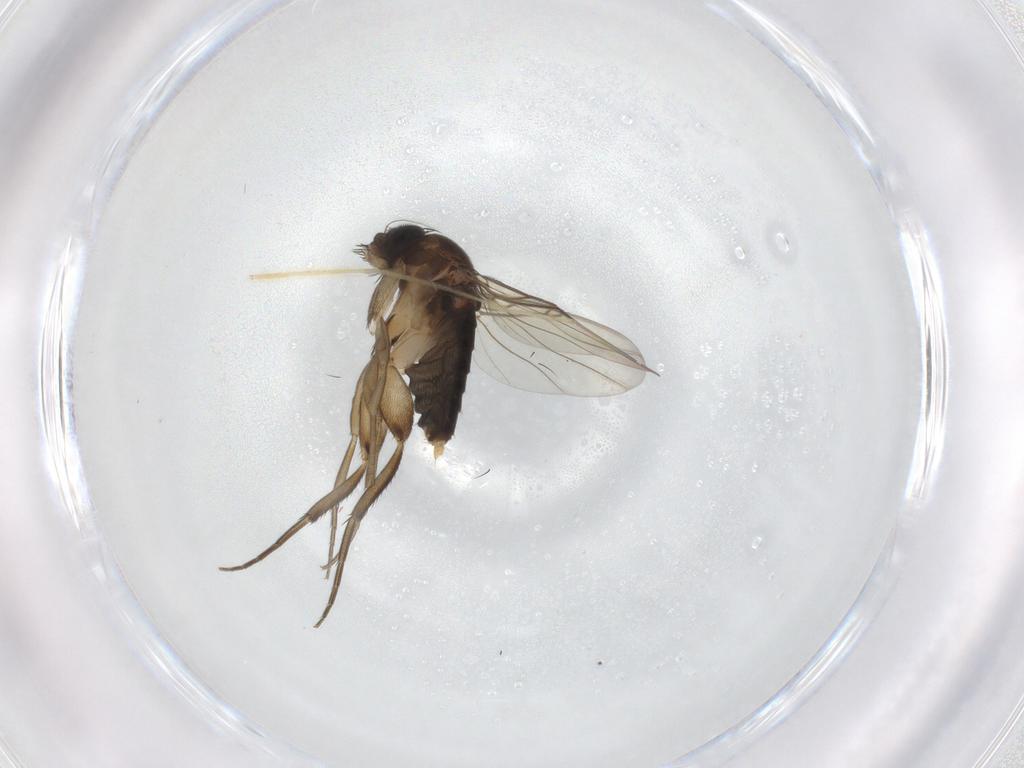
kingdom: Animalia
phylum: Arthropoda
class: Insecta
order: Diptera
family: Phoridae
